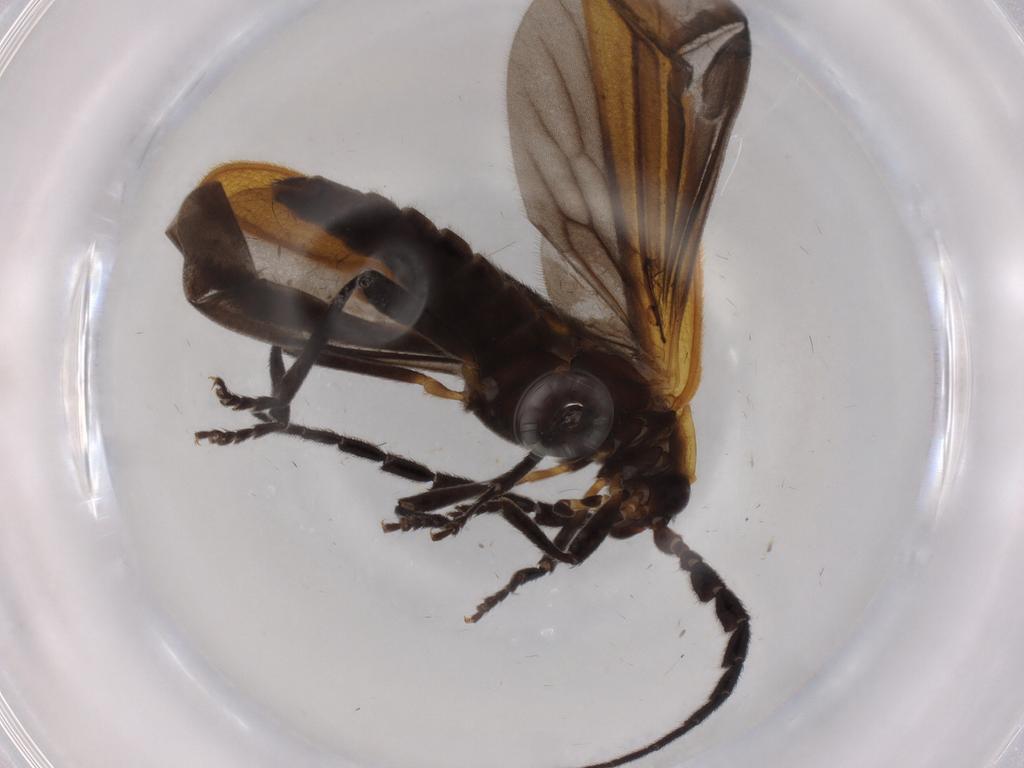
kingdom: Animalia
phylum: Arthropoda
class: Insecta
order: Coleoptera
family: Lycidae
